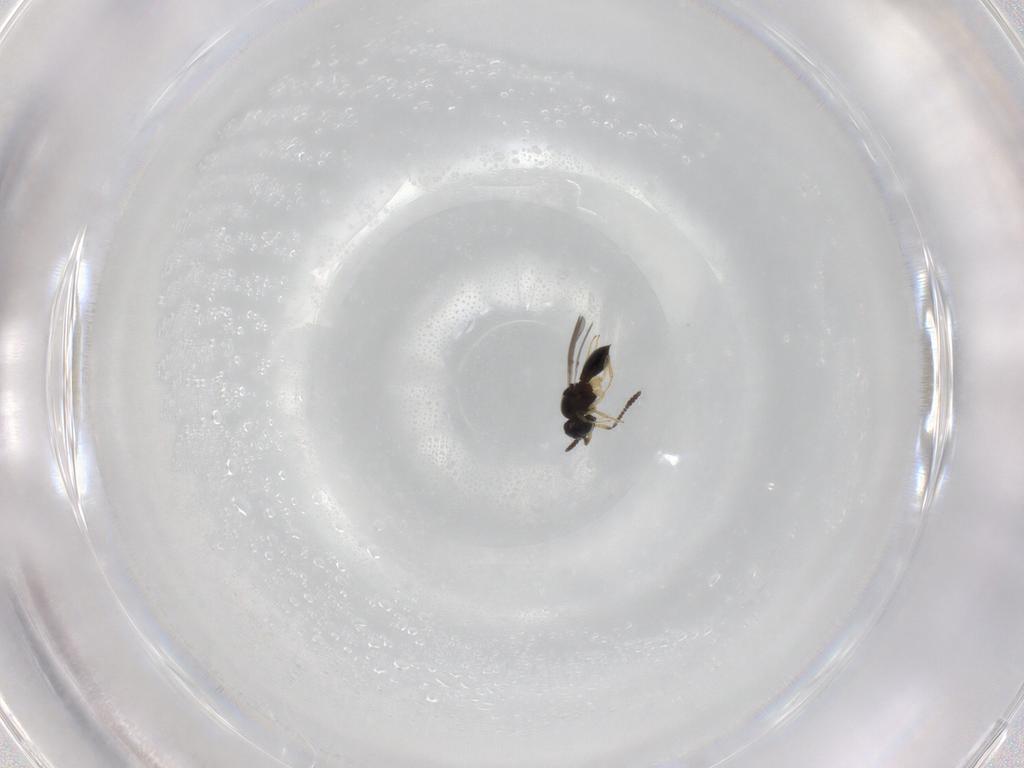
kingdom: Animalia
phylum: Arthropoda
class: Insecta
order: Hymenoptera
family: Scelionidae
